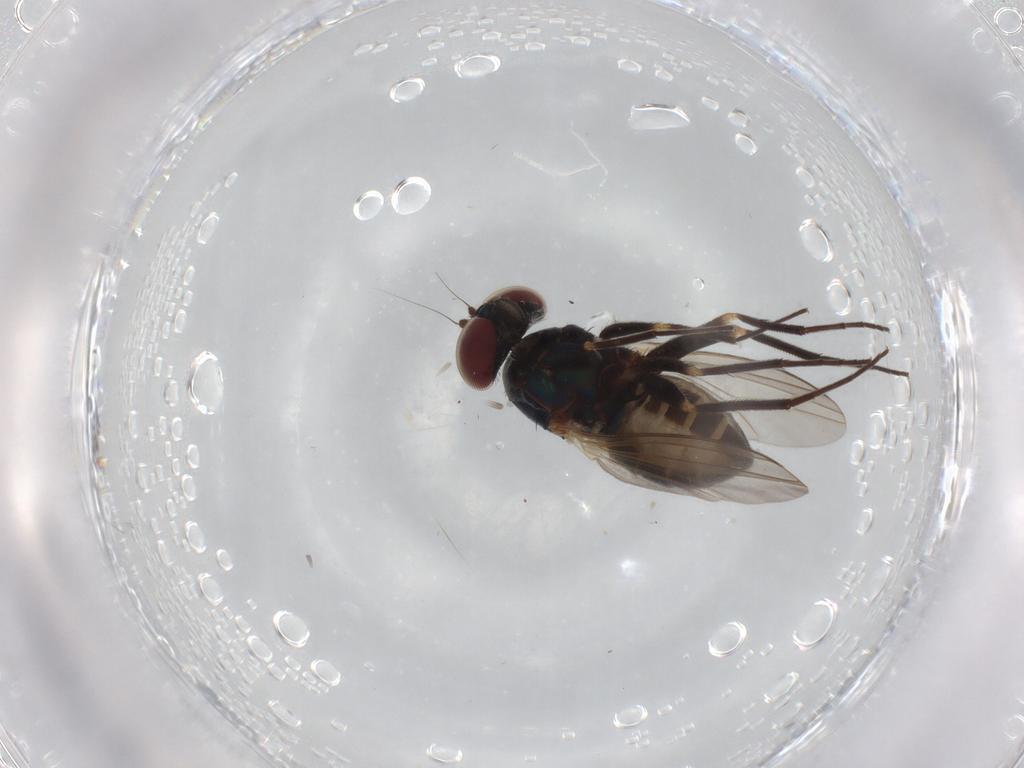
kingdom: Animalia
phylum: Arthropoda
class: Insecta
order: Diptera
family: Dolichopodidae
